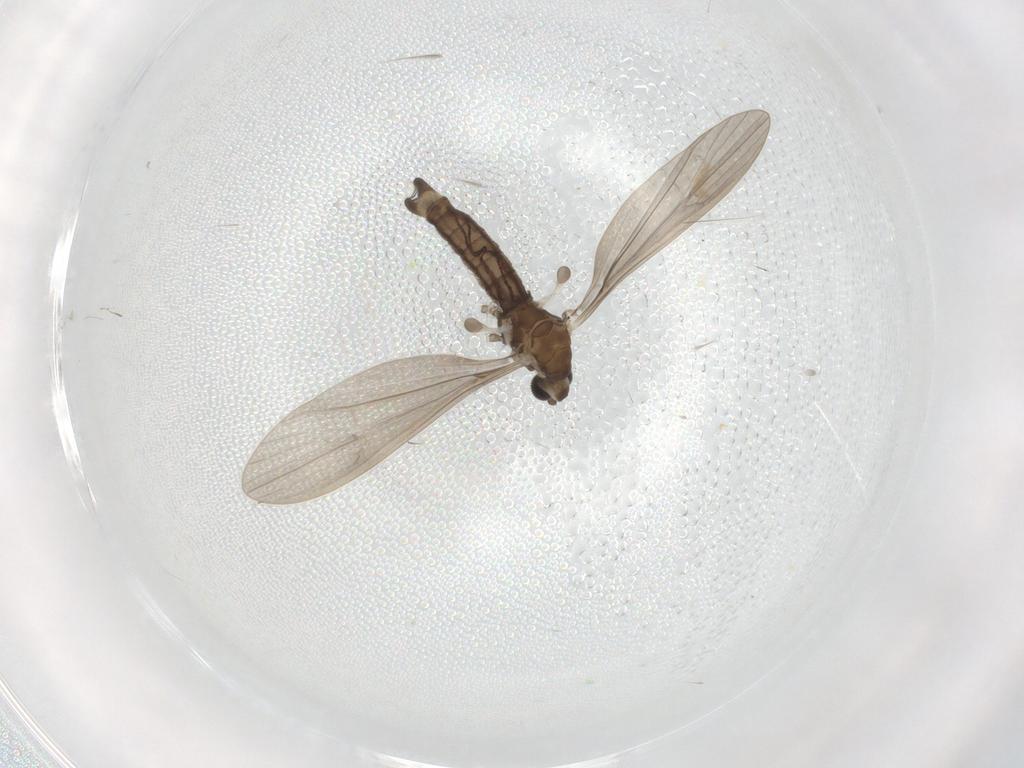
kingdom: Animalia
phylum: Arthropoda
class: Insecta
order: Diptera
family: Limoniidae
